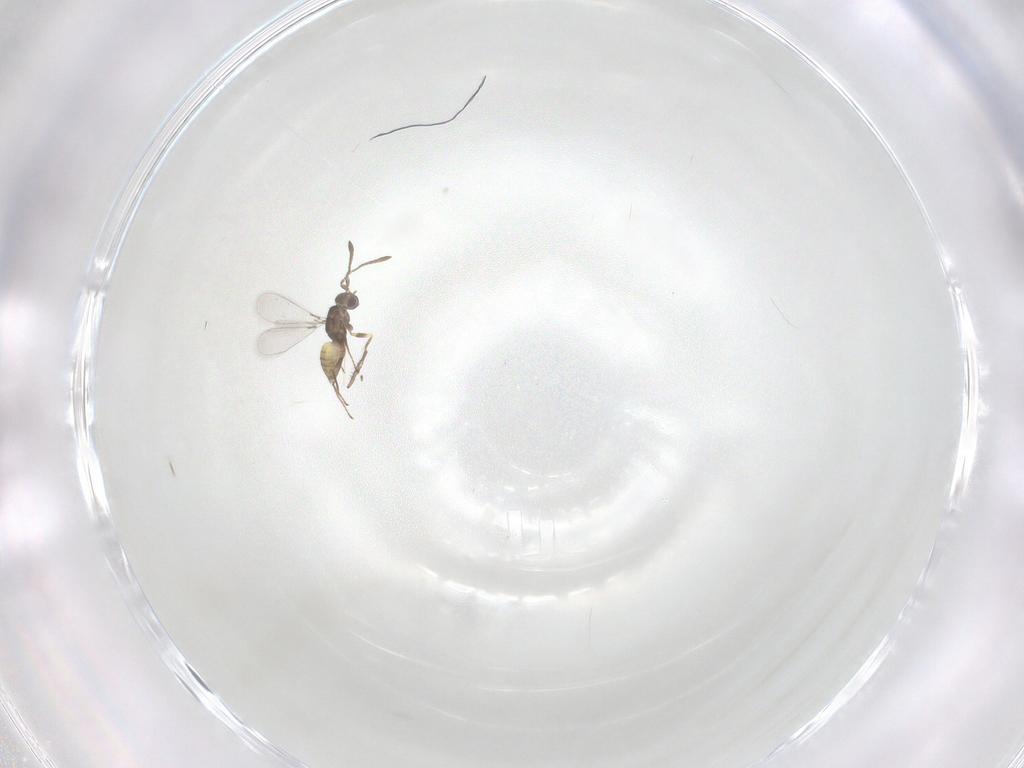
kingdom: Animalia
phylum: Arthropoda
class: Insecta
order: Hymenoptera
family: Mymaridae
